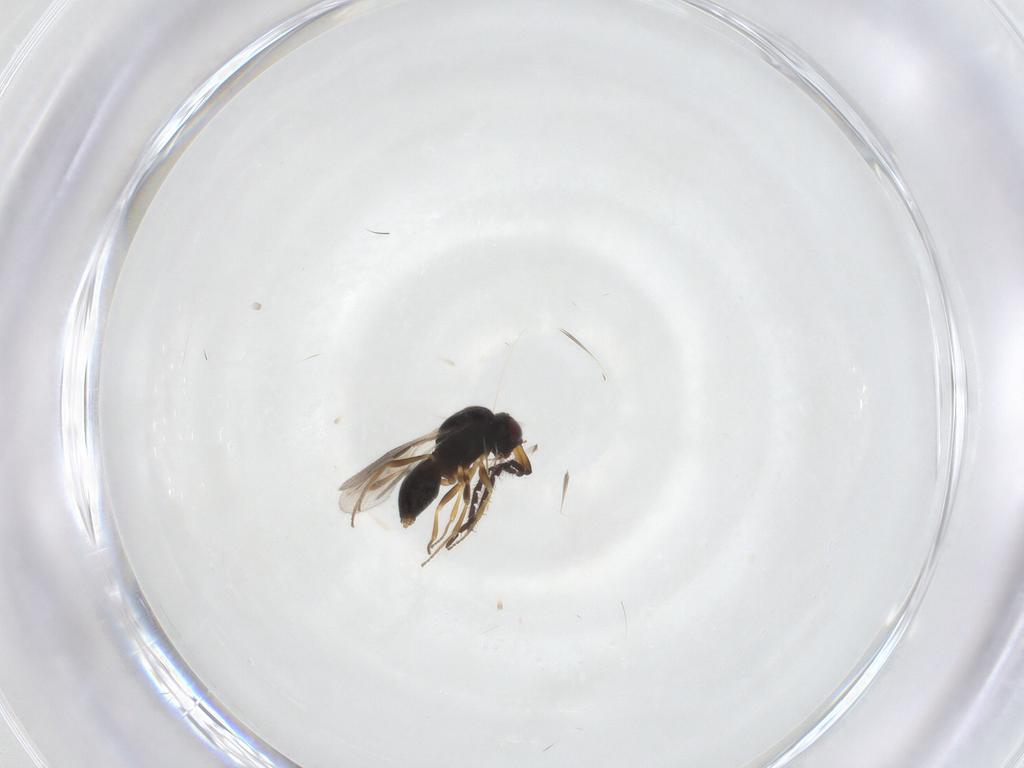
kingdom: Animalia
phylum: Arthropoda
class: Insecta
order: Hymenoptera
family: Megaspilidae
